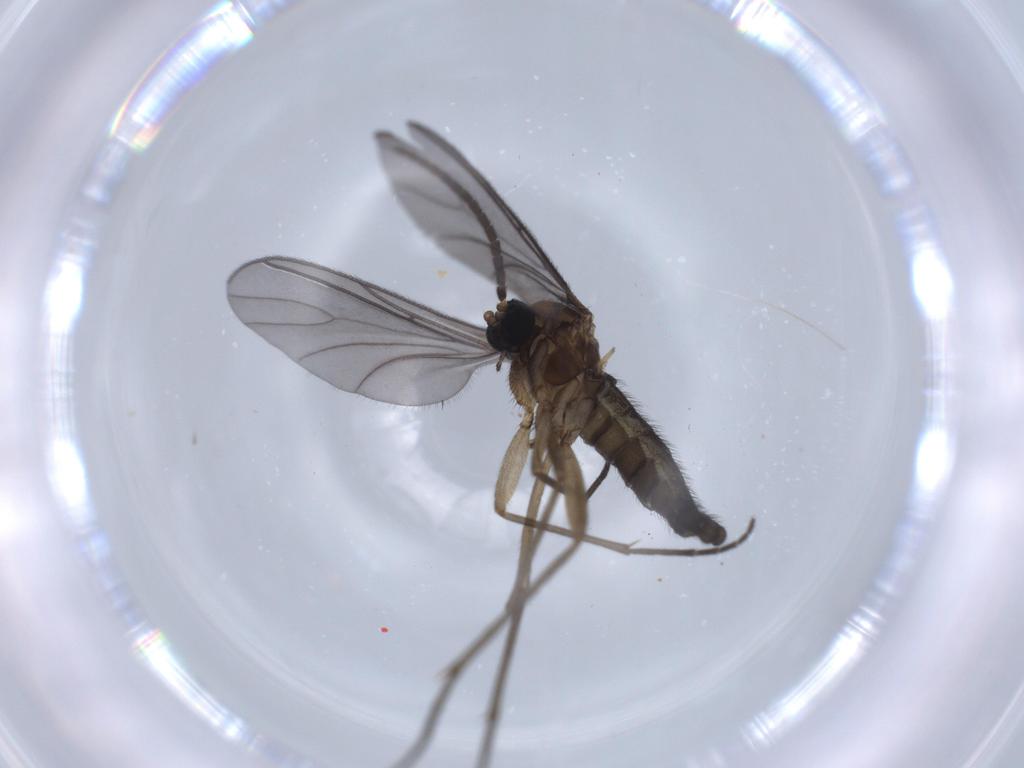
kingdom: Animalia
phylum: Arthropoda
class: Insecta
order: Diptera
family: Sciaridae
